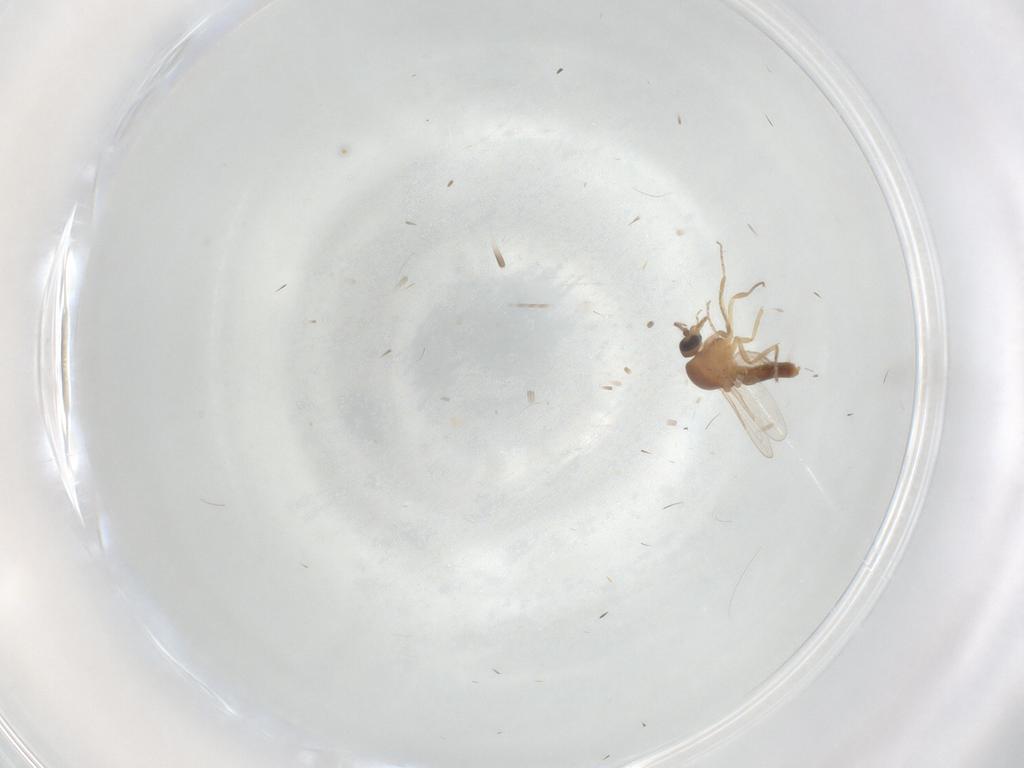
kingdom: Animalia
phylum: Arthropoda
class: Insecta
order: Diptera
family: Ceratopogonidae
